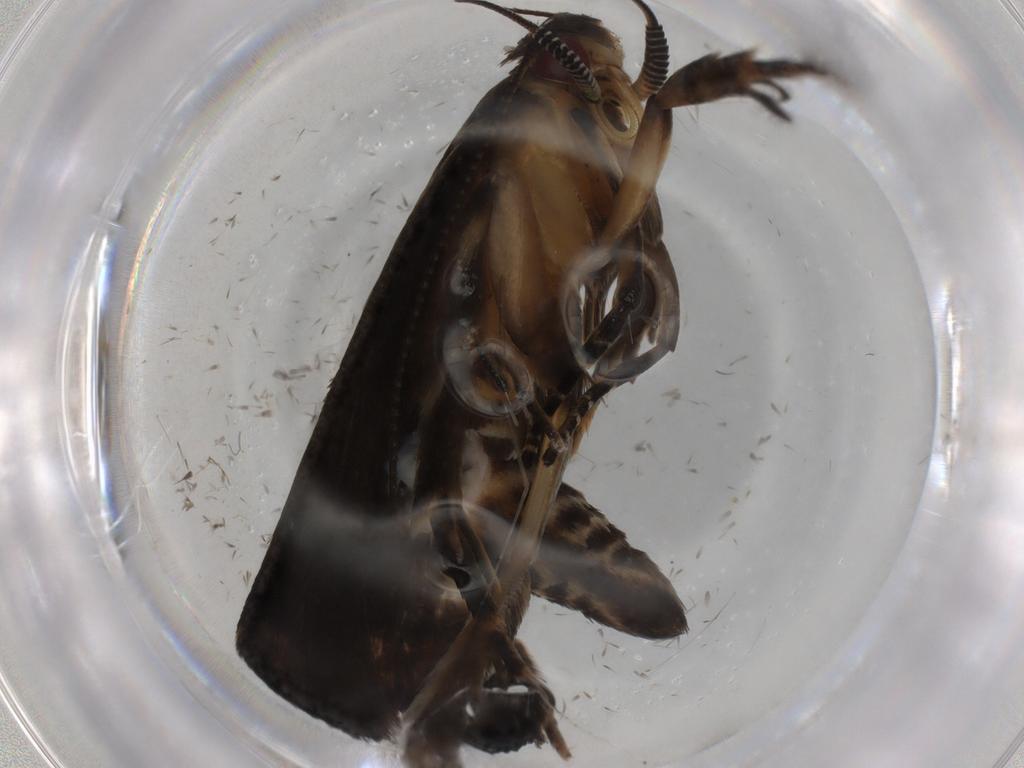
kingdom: Animalia
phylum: Arthropoda
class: Insecta
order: Lepidoptera
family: Gelechiidae
